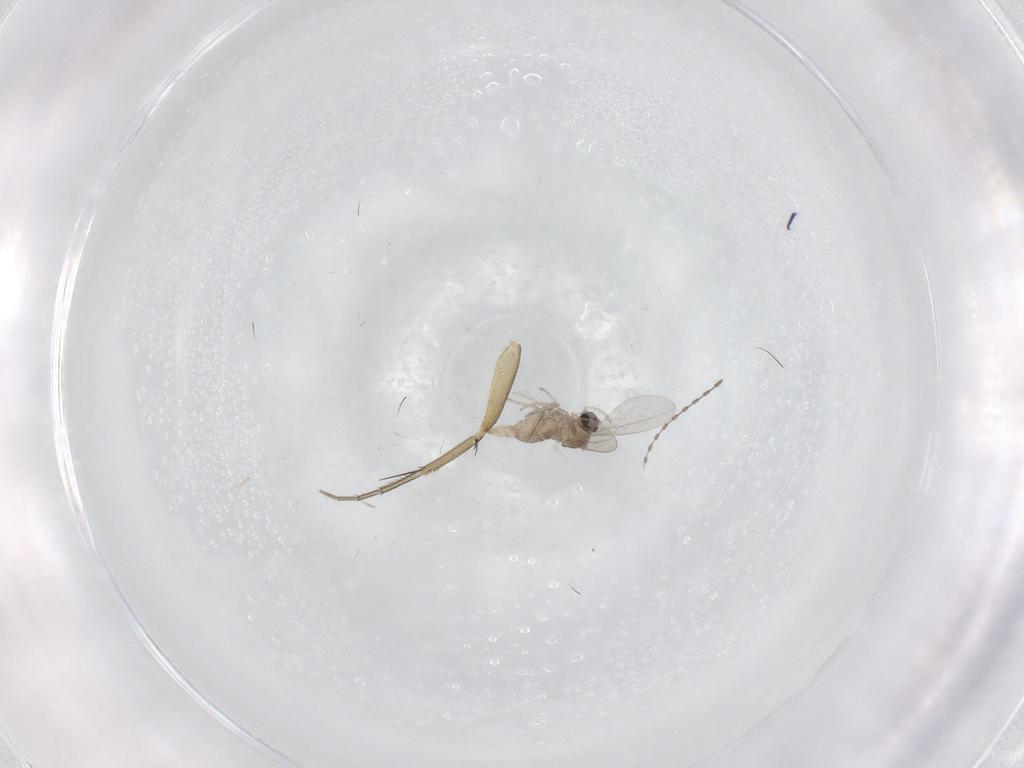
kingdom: Animalia
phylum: Arthropoda
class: Insecta
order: Diptera
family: Cecidomyiidae
